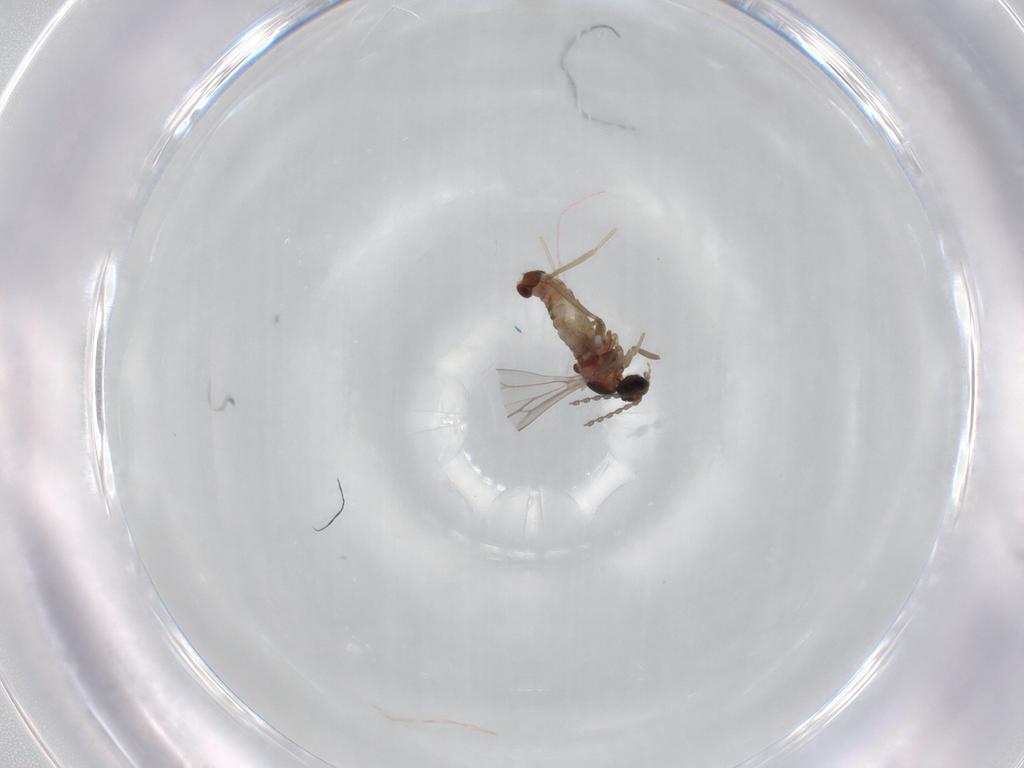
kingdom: Animalia
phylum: Arthropoda
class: Insecta
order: Diptera
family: Cecidomyiidae
